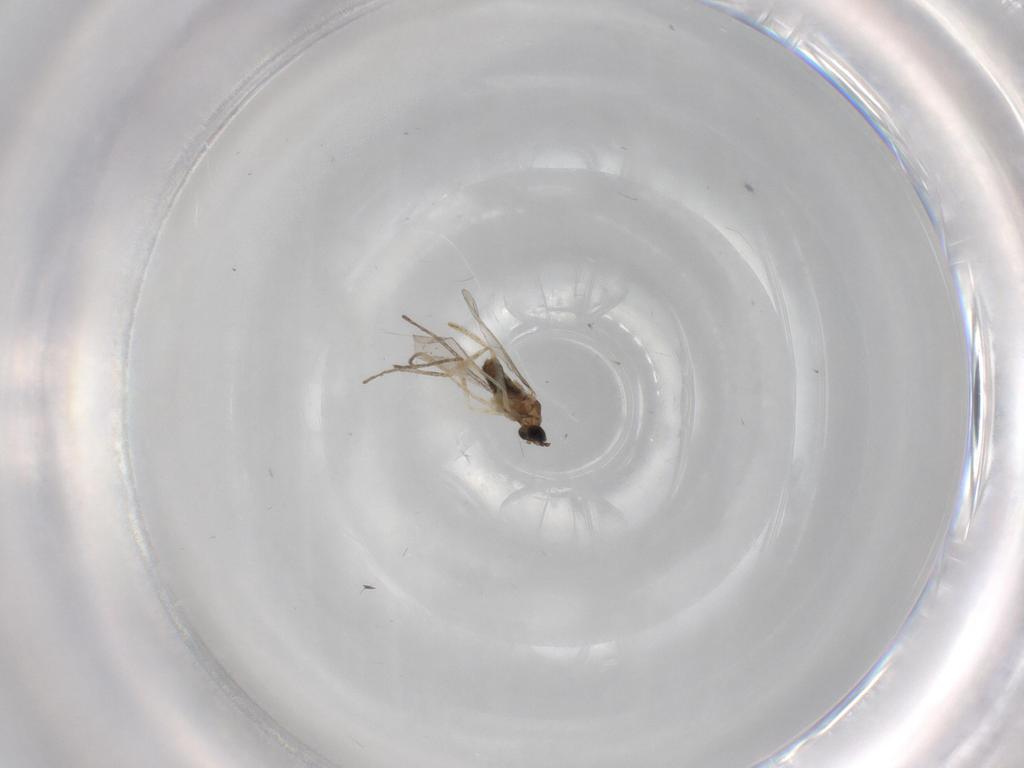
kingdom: Animalia
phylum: Arthropoda
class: Insecta
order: Diptera
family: Cecidomyiidae
